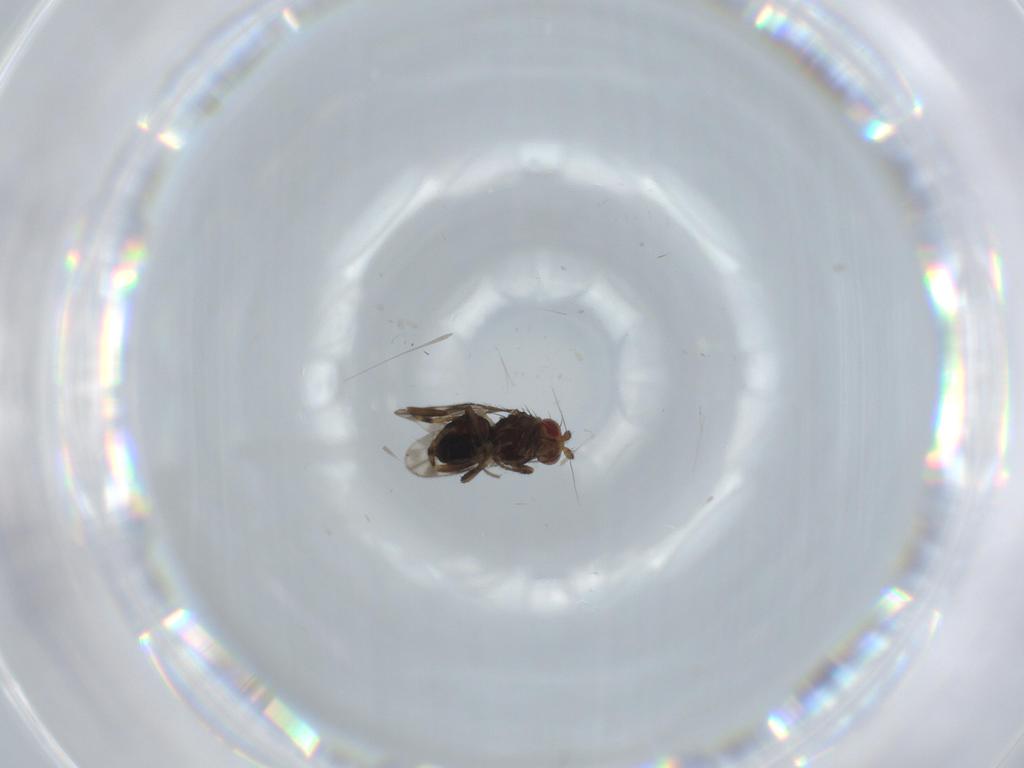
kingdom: Animalia
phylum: Arthropoda
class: Insecta
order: Diptera
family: Sphaeroceridae
